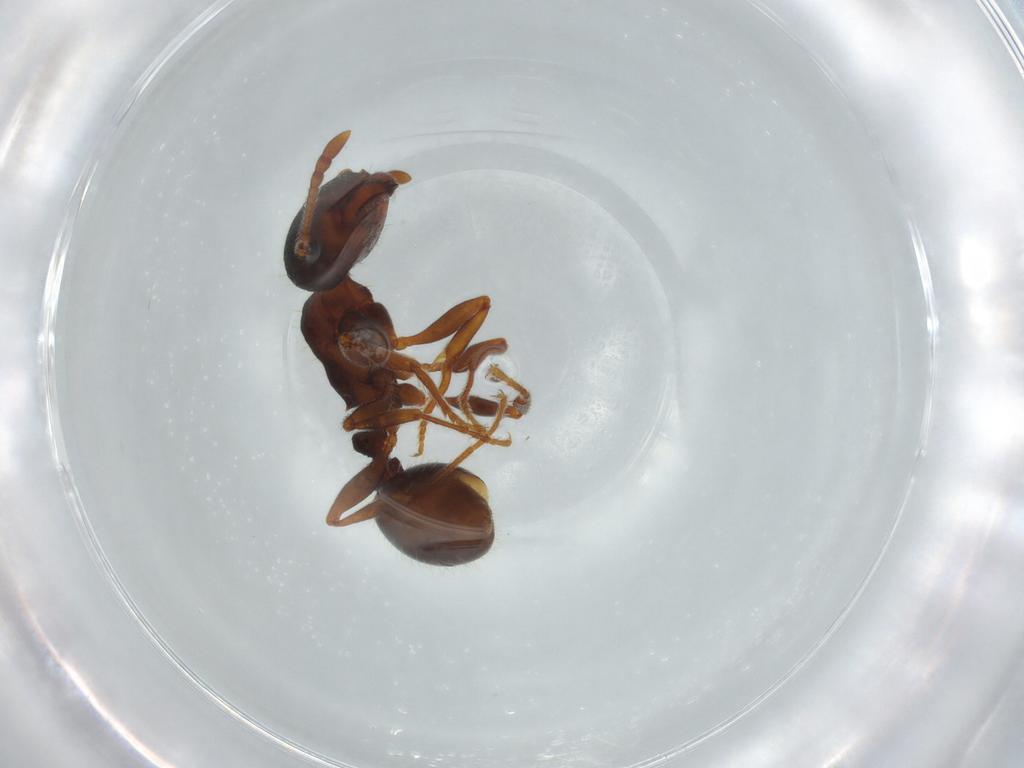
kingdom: Animalia
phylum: Arthropoda
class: Insecta
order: Hymenoptera
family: Formicidae
